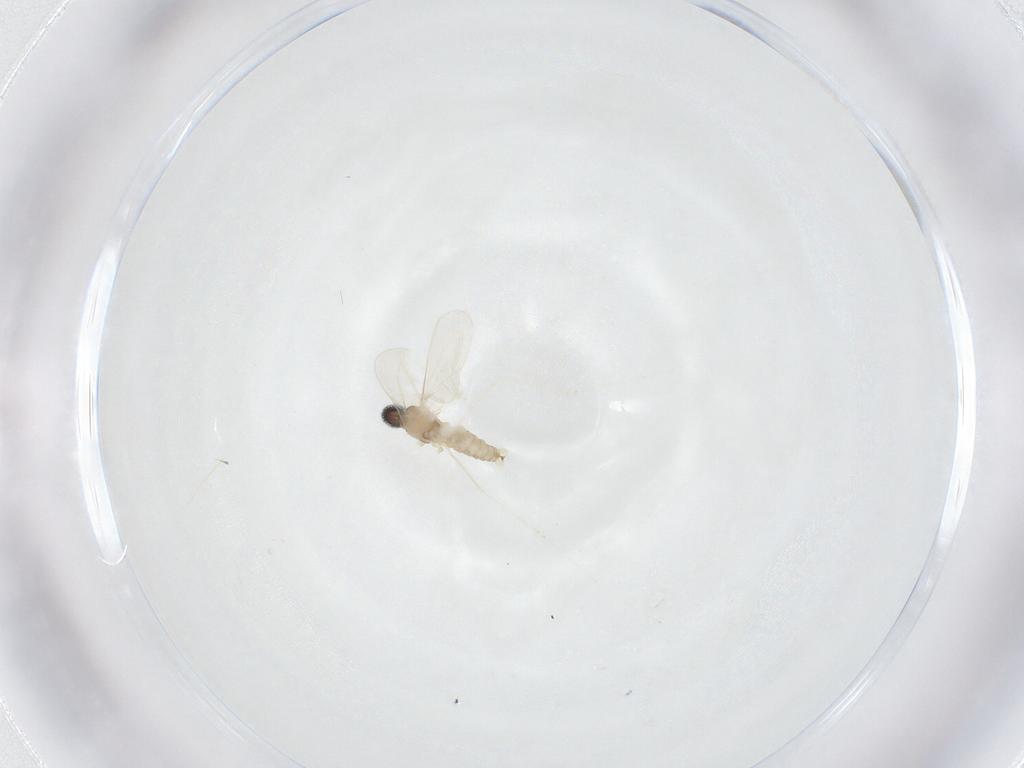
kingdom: Animalia
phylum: Arthropoda
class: Insecta
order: Diptera
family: Cecidomyiidae
